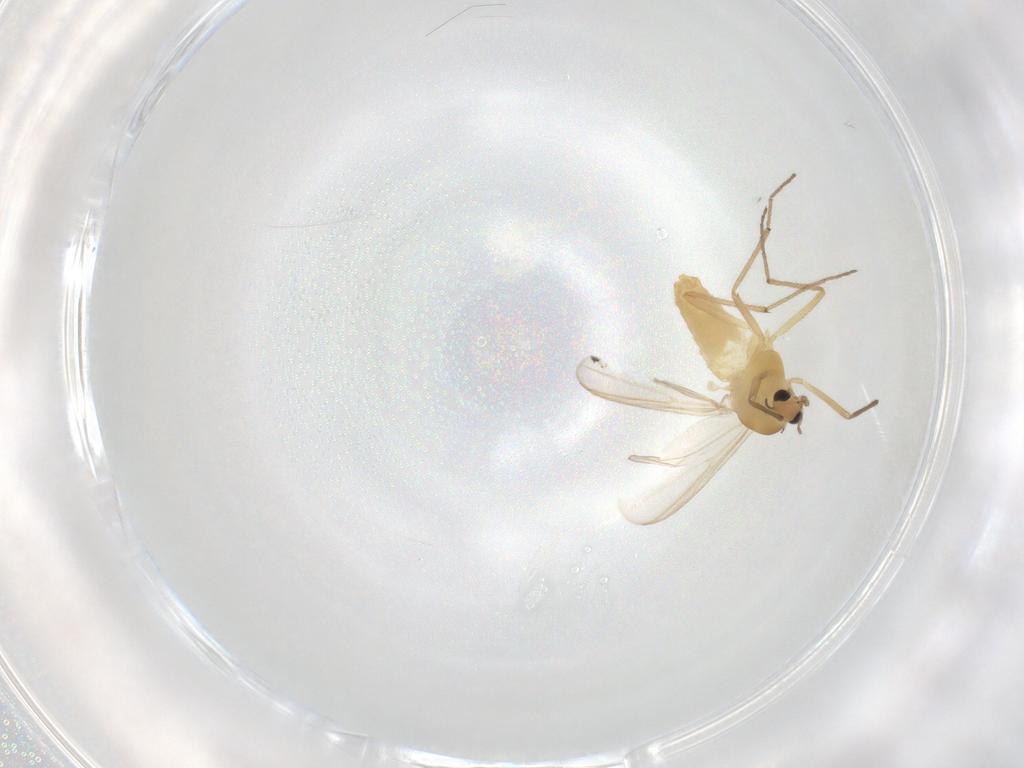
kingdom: Animalia
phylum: Arthropoda
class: Insecta
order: Diptera
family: Chironomidae
